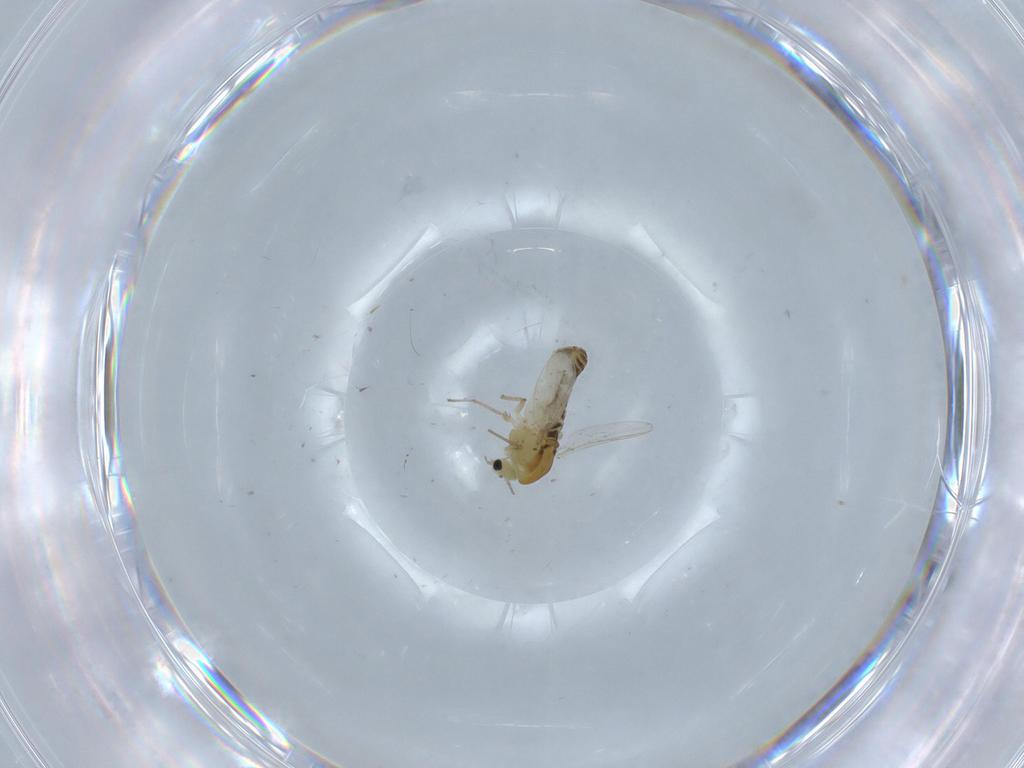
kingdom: Animalia
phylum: Arthropoda
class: Insecta
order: Diptera
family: Chironomidae
